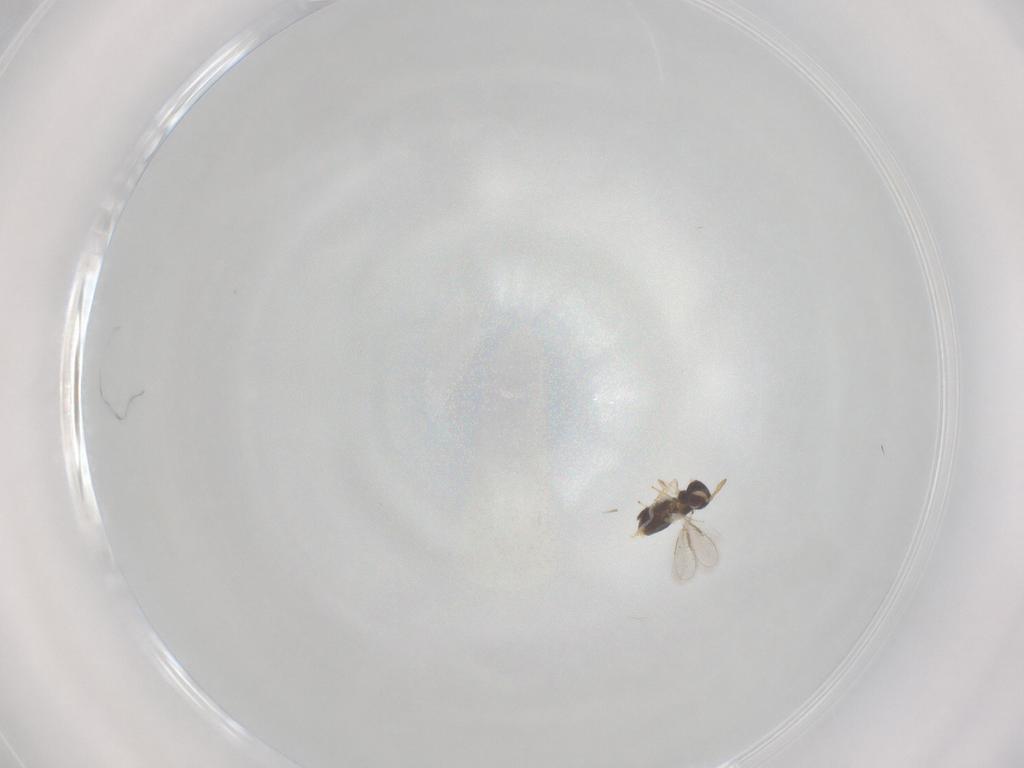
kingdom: Animalia
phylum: Arthropoda
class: Insecta
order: Hymenoptera
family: Aphelinidae
